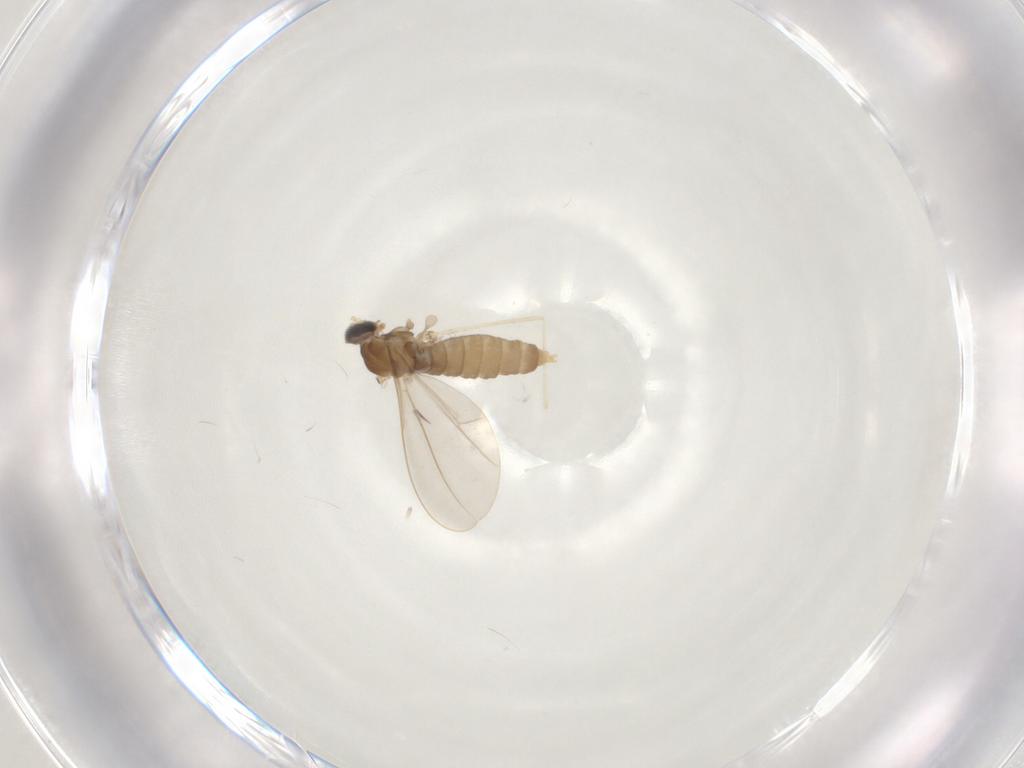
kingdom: Animalia
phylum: Arthropoda
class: Insecta
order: Diptera
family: Cecidomyiidae
